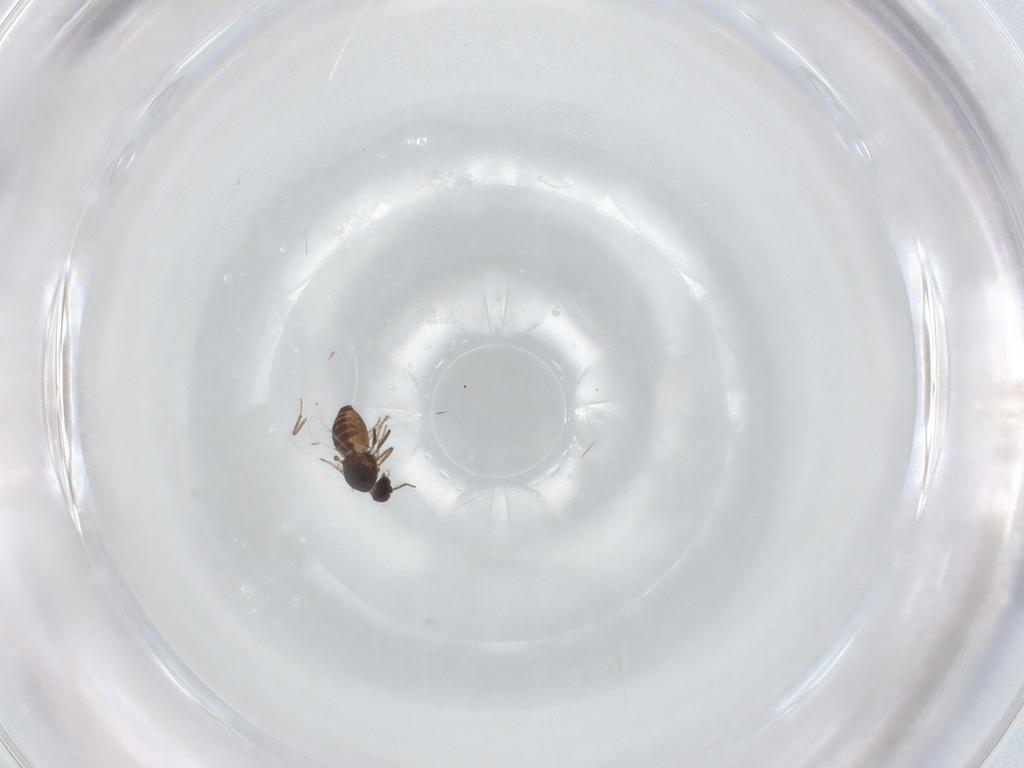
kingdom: Animalia
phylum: Arthropoda
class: Insecta
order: Diptera
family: Ceratopogonidae
